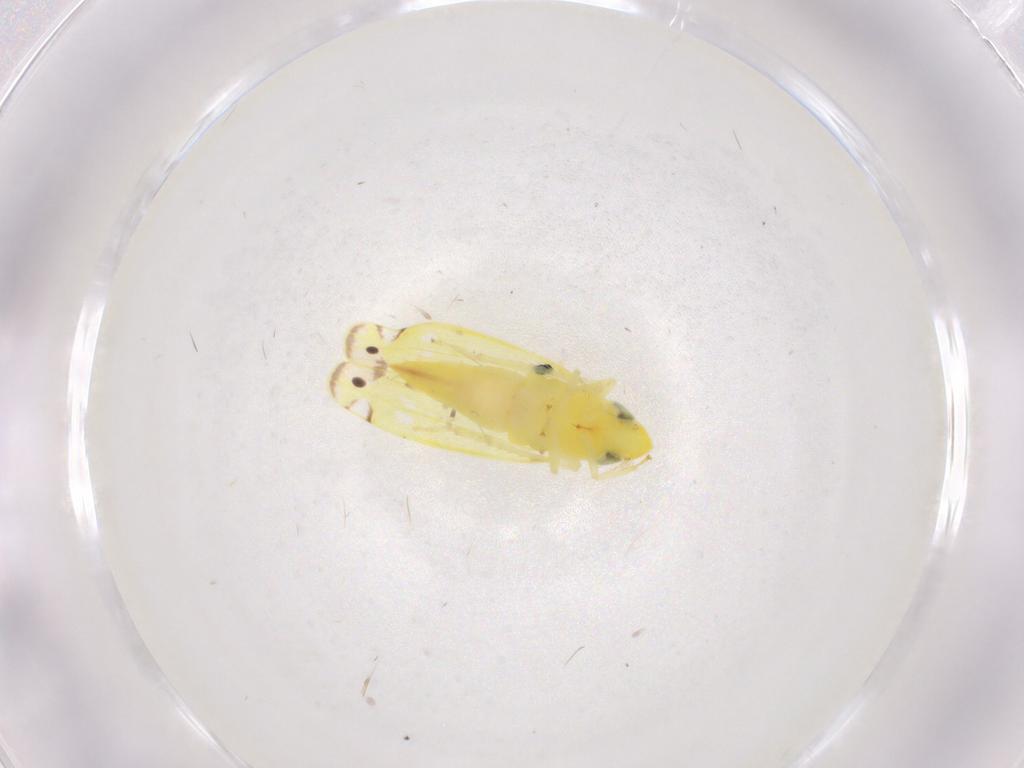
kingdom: Animalia
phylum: Arthropoda
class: Insecta
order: Hemiptera
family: Cicadellidae
